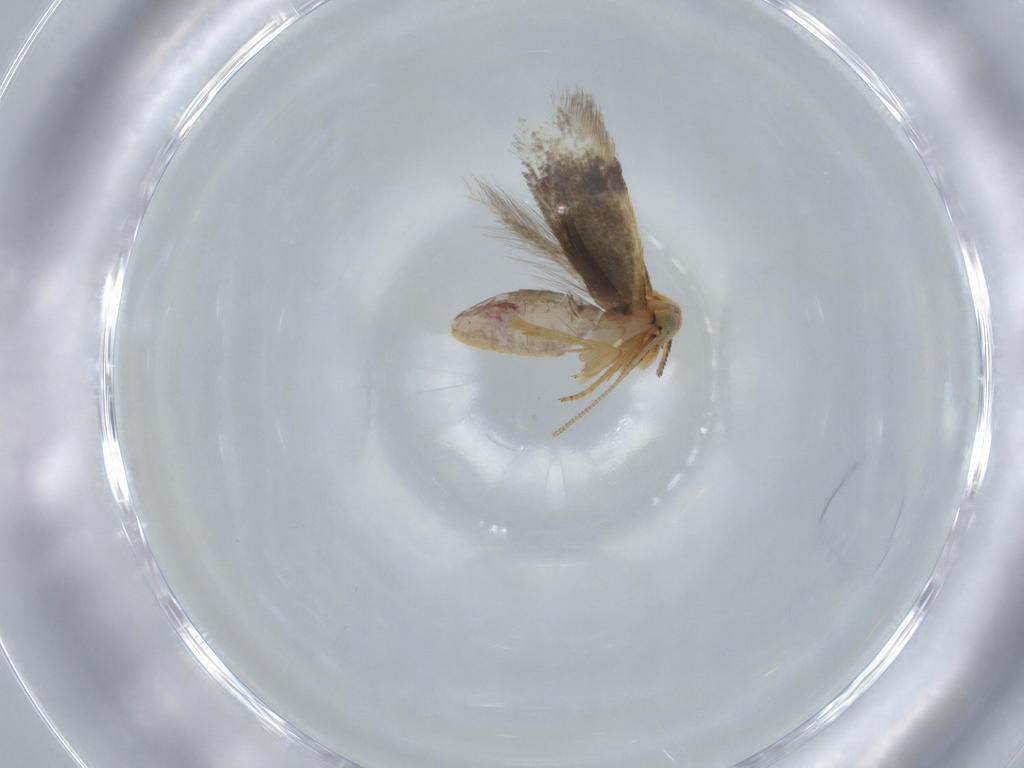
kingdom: Animalia
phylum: Arthropoda
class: Insecta
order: Lepidoptera
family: Nepticulidae
